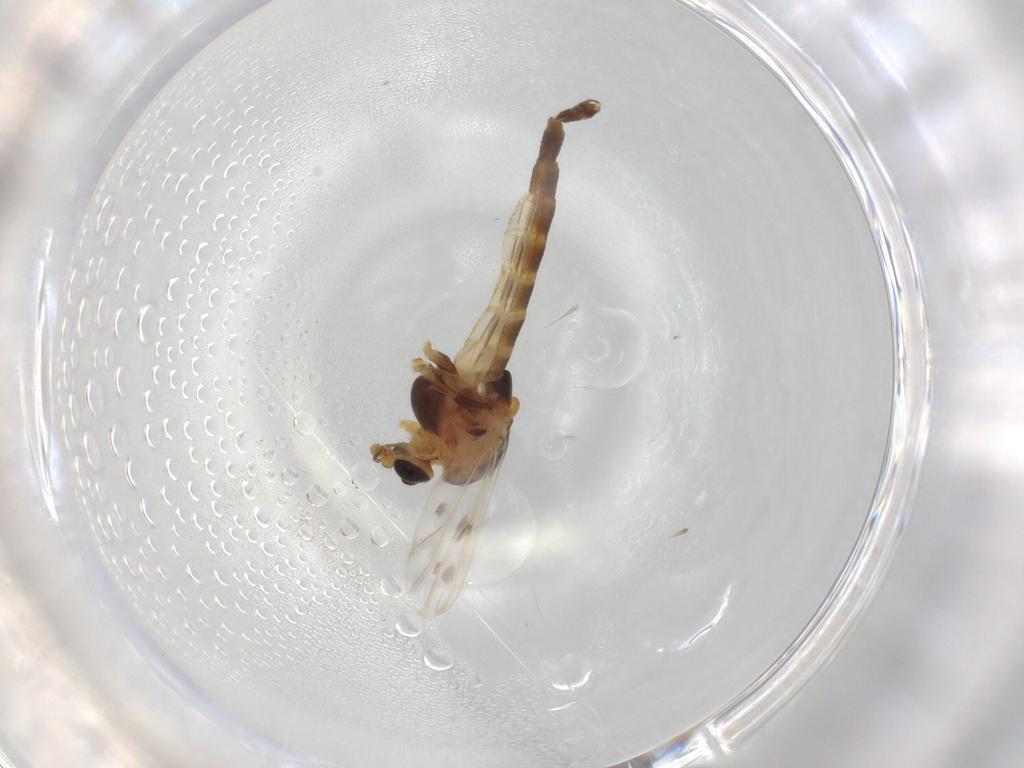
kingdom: Animalia
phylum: Arthropoda
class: Insecta
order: Diptera
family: Chironomidae
